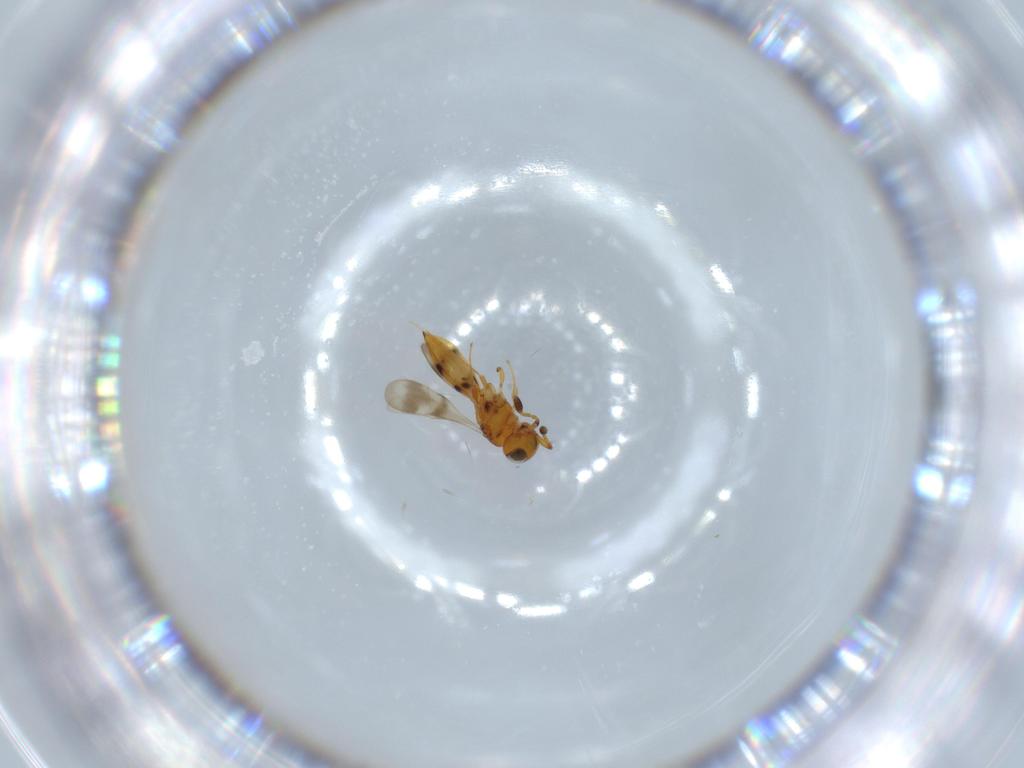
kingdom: Animalia
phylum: Arthropoda
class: Insecta
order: Hymenoptera
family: Scelionidae
